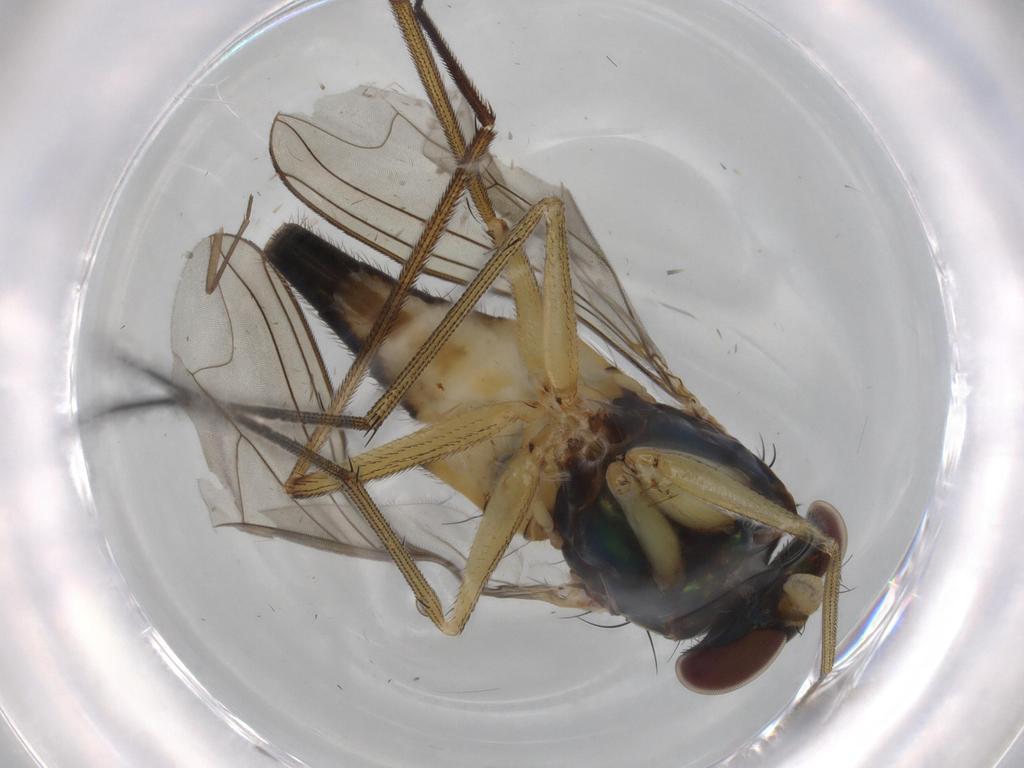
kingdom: Animalia
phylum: Arthropoda
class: Insecta
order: Diptera
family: Dolichopodidae
